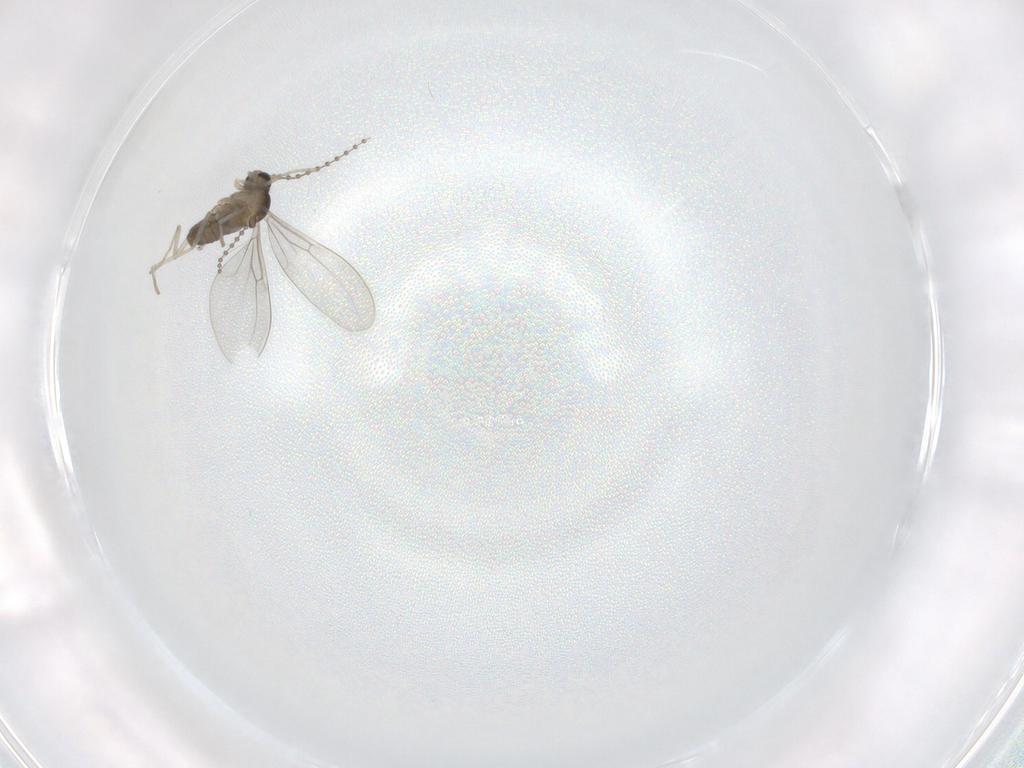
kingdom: Animalia
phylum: Arthropoda
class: Insecta
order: Diptera
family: Cecidomyiidae
